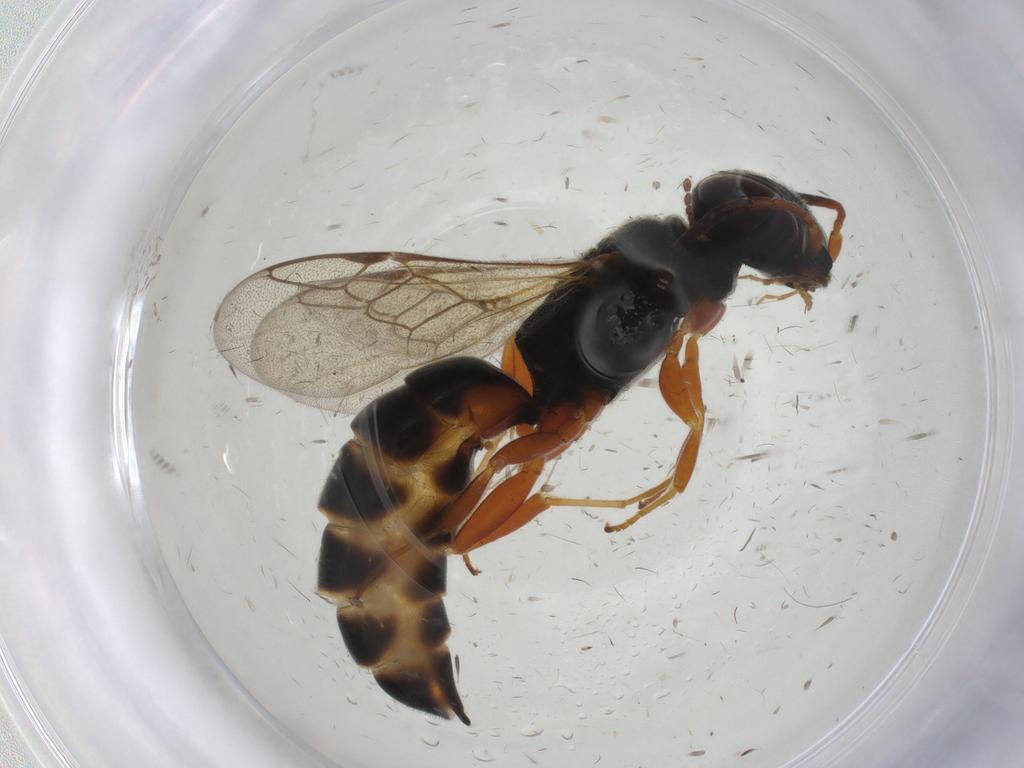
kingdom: Animalia
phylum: Arthropoda
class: Insecta
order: Hymenoptera
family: Crabronidae
